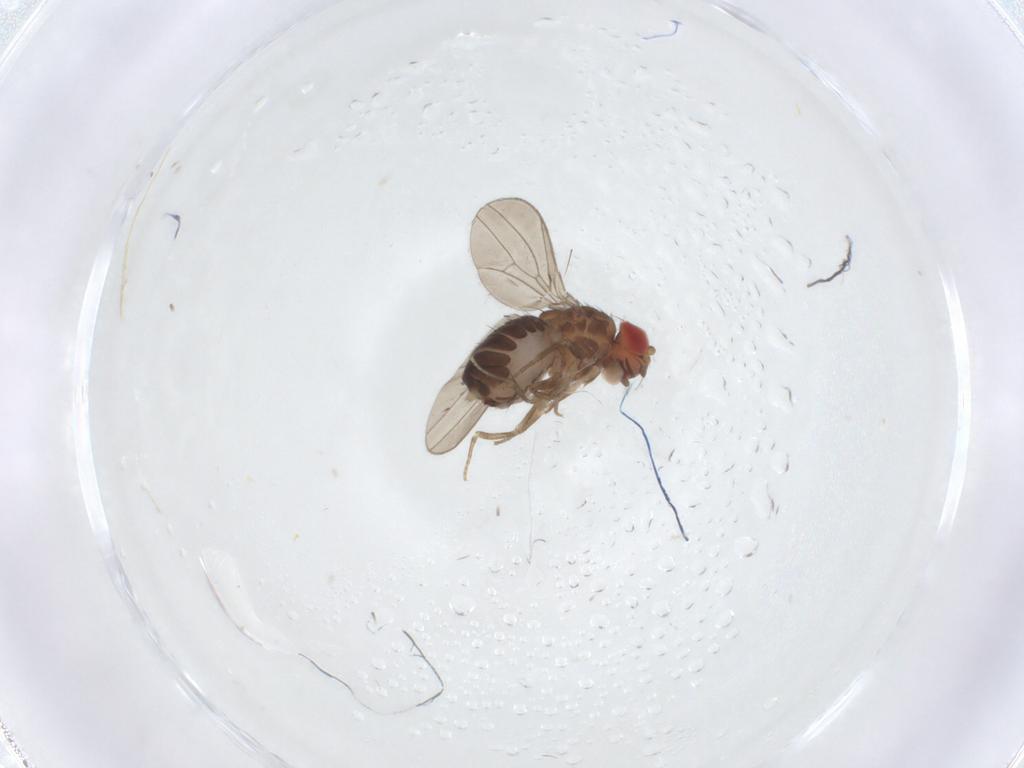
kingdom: Animalia
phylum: Arthropoda
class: Insecta
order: Diptera
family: Drosophilidae
